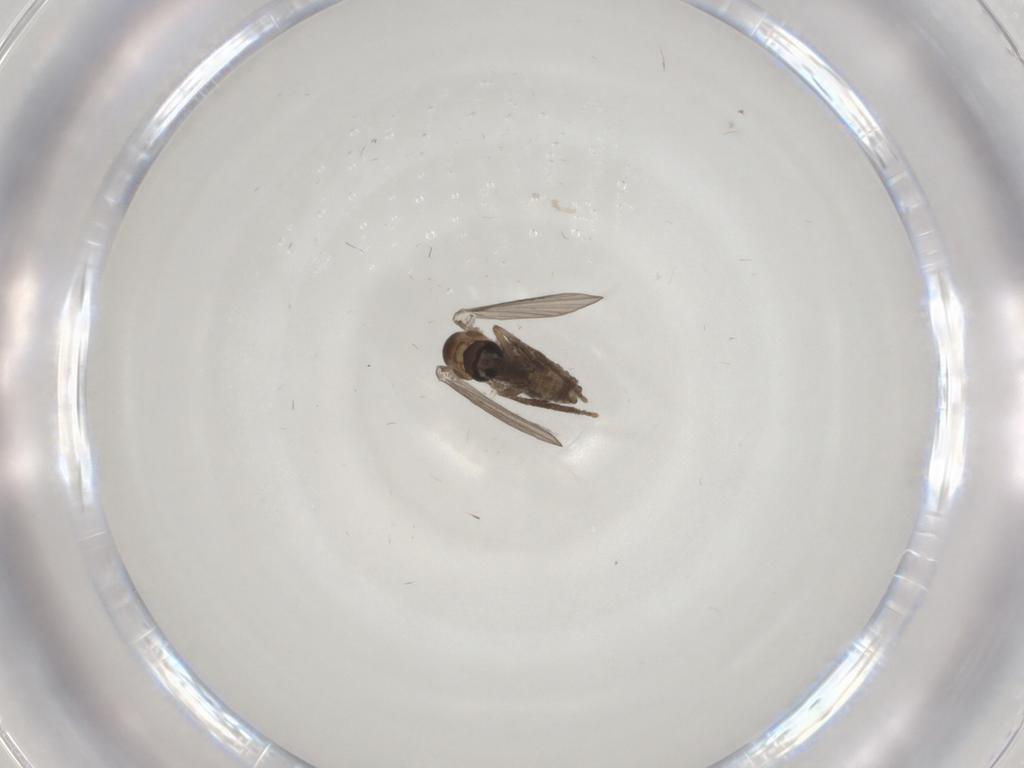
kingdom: Animalia
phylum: Arthropoda
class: Insecta
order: Diptera
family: Psychodidae
